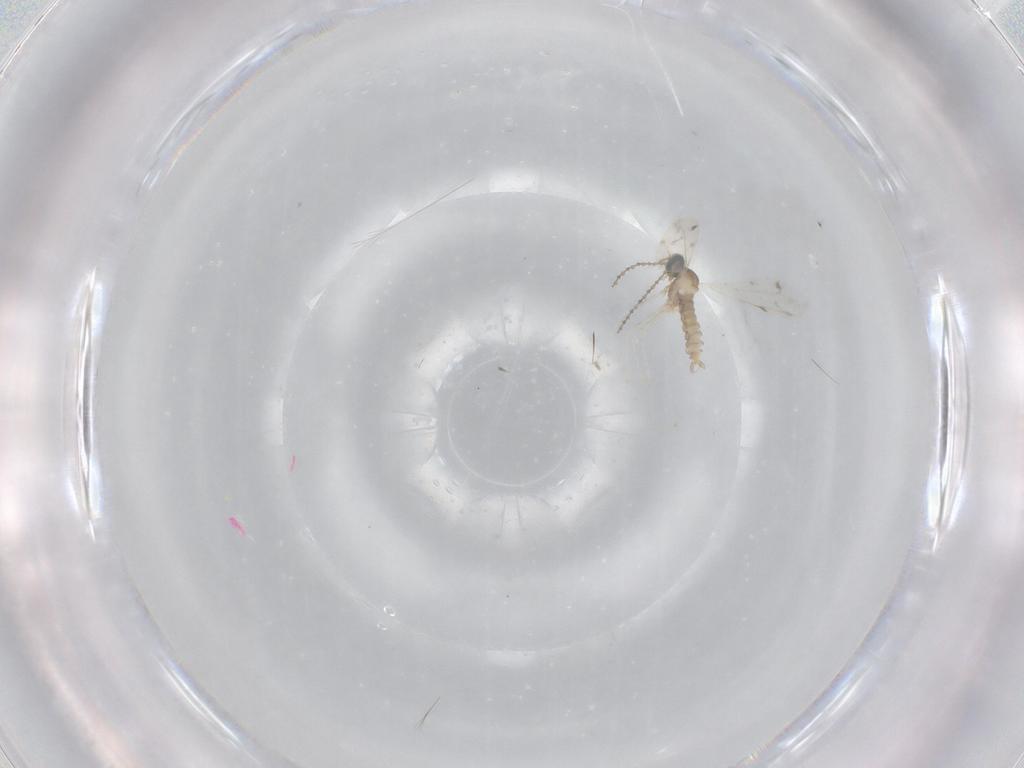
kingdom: Animalia
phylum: Arthropoda
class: Insecta
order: Diptera
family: Cecidomyiidae
